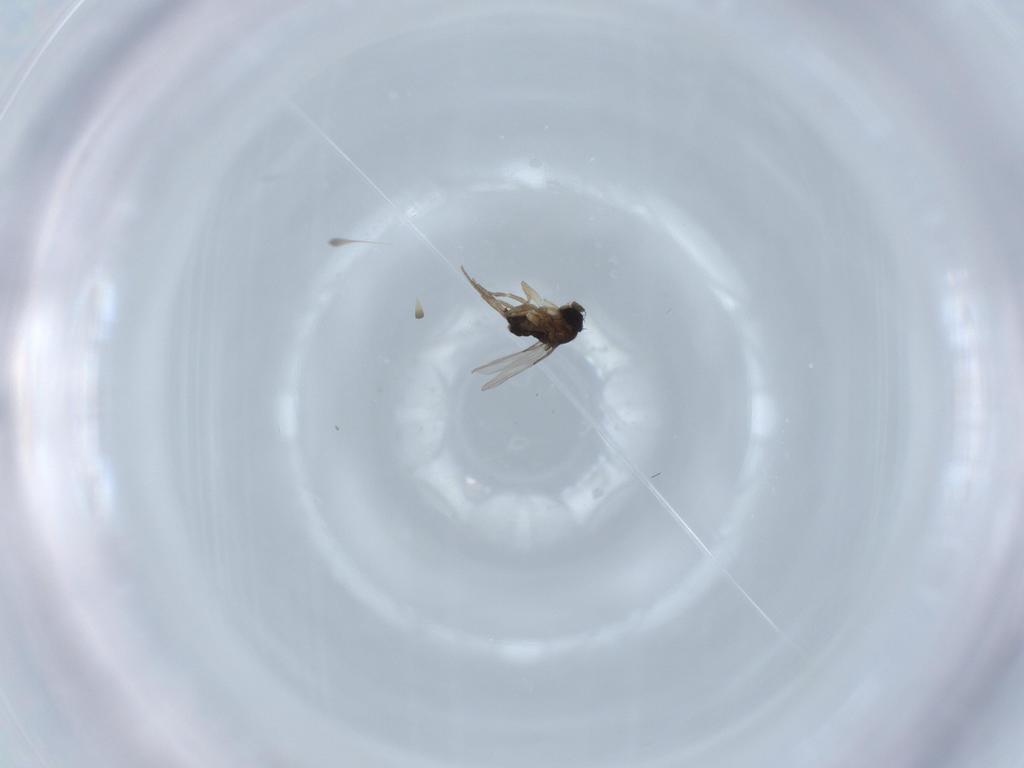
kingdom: Animalia
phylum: Arthropoda
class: Insecta
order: Diptera
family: Phoridae
